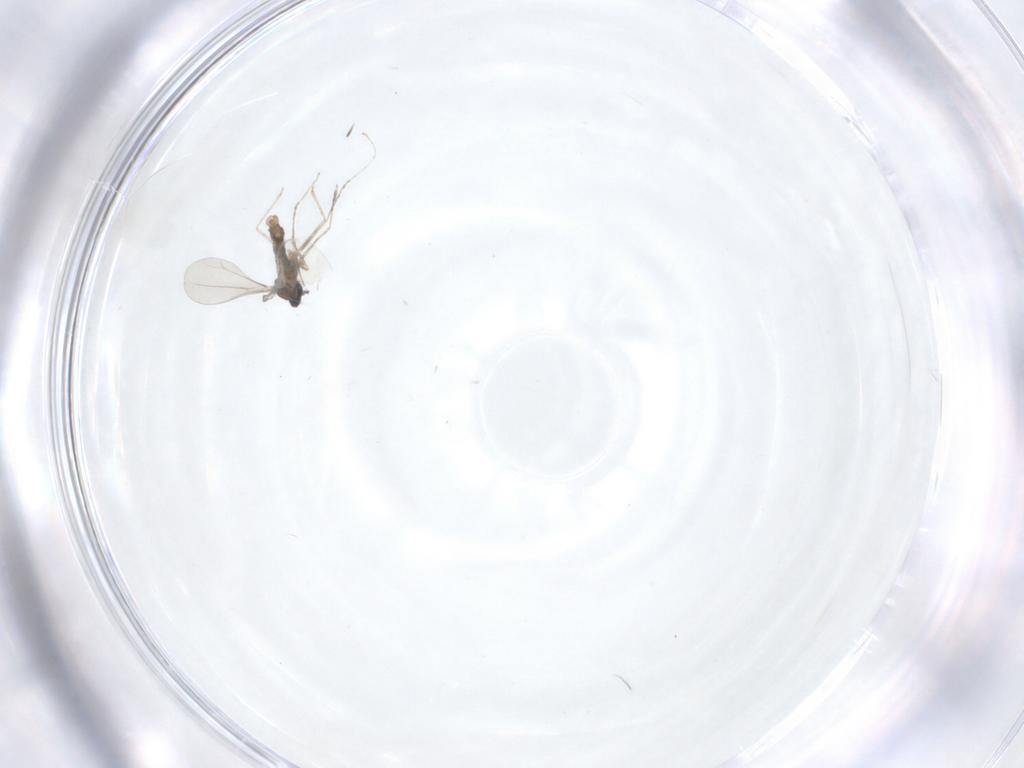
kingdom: Animalia
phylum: Arthropoda
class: Insecta
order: Diptera
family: Cecidomyiidae
